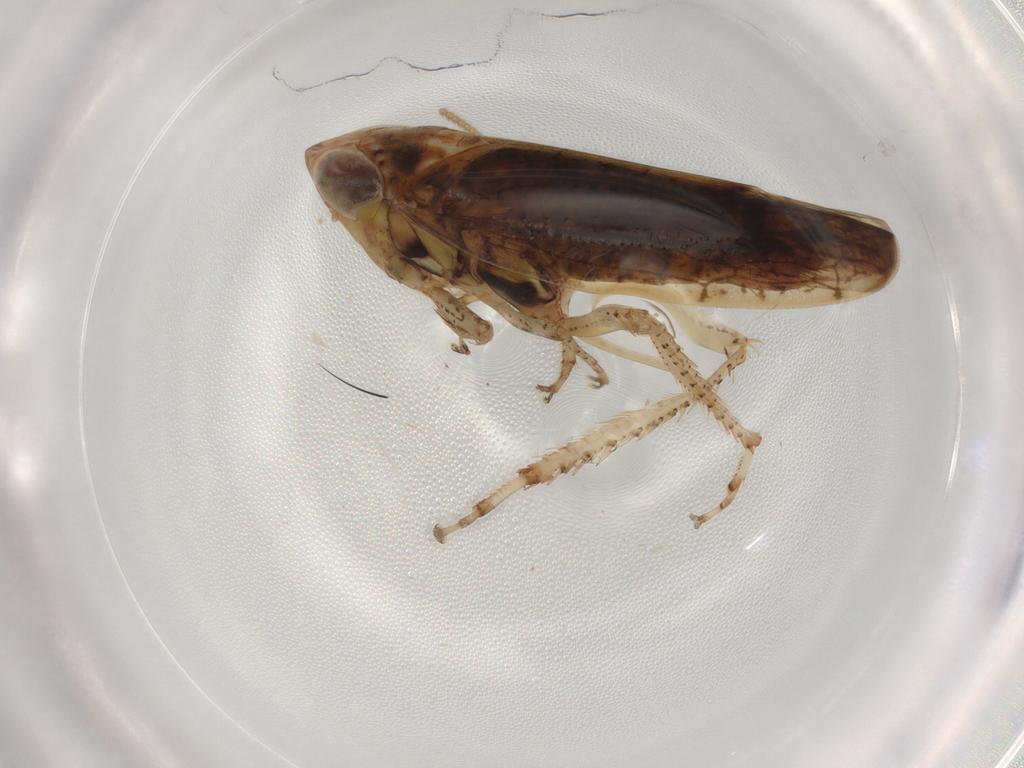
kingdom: Animalia
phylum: Arthropoda
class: Insecta
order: Hemiptera
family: Cicadellidae
